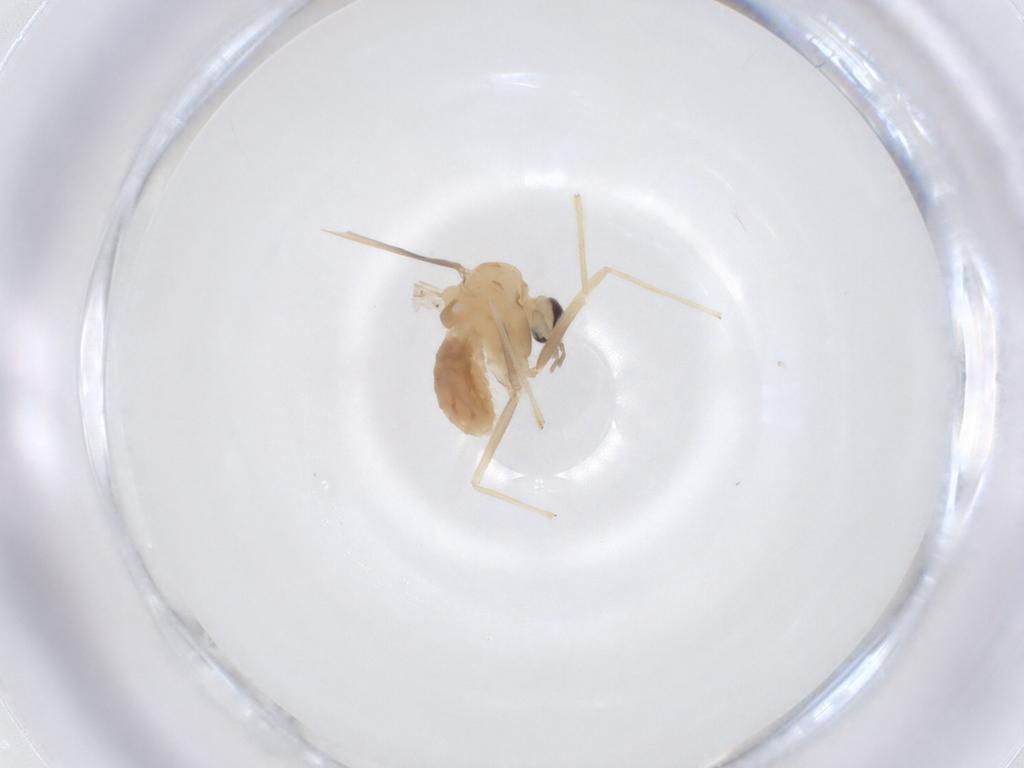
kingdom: Animalia
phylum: Arthropoda
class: Insecta
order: Diptera
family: Chironomidae
